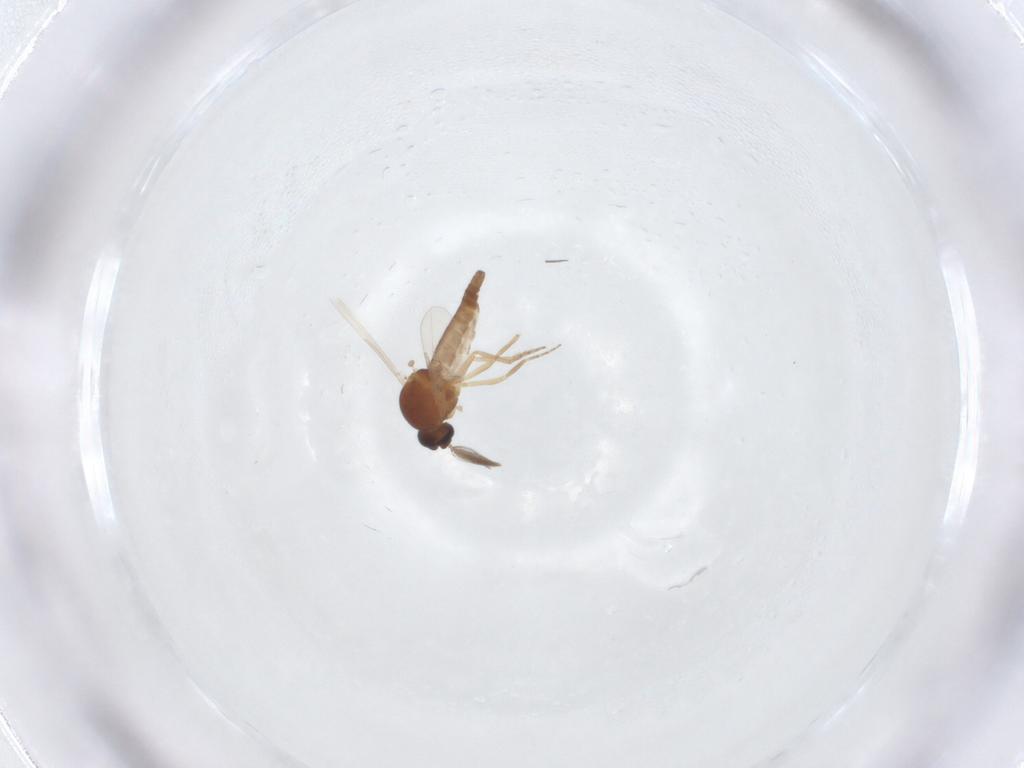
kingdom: Animalia
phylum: Arthropoda
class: Insecta
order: Diptera
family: Ceratopogonidae
